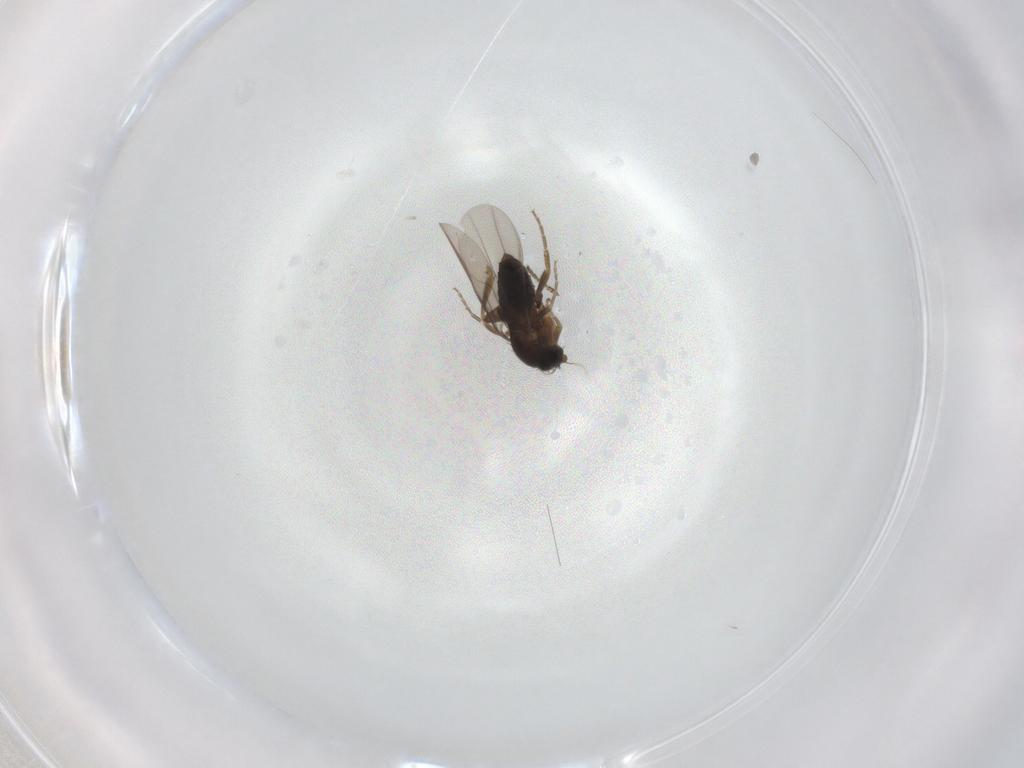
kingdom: Animalia
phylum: Arthropoda
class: Insecta
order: Diptera
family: Phoridae
